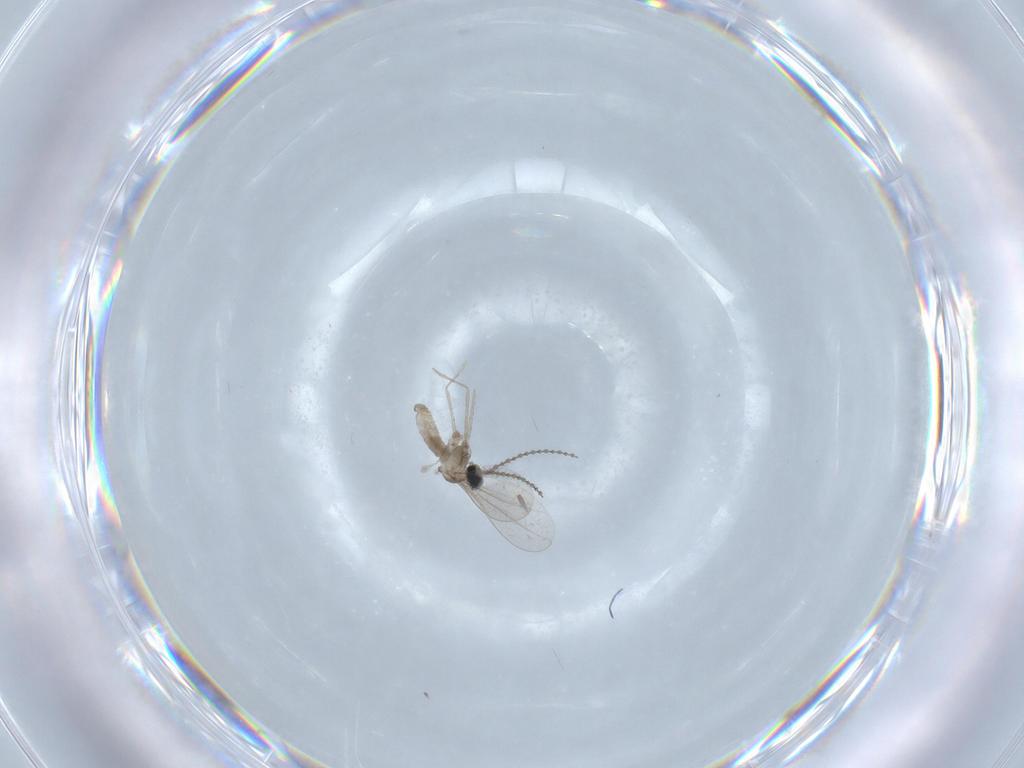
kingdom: Animalia
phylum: Arthropoda
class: Insecta
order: Diptera
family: Cecidomyiidae
